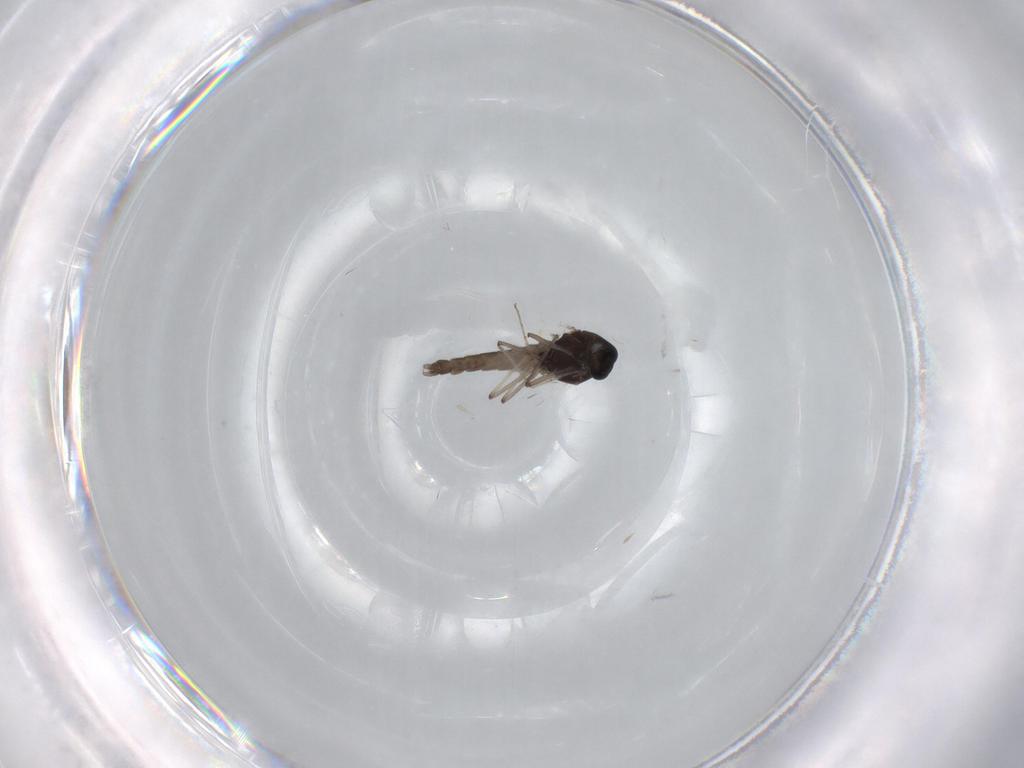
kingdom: Animalia
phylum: Arthropoda
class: Insecta
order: Diptera
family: Chironomidae
